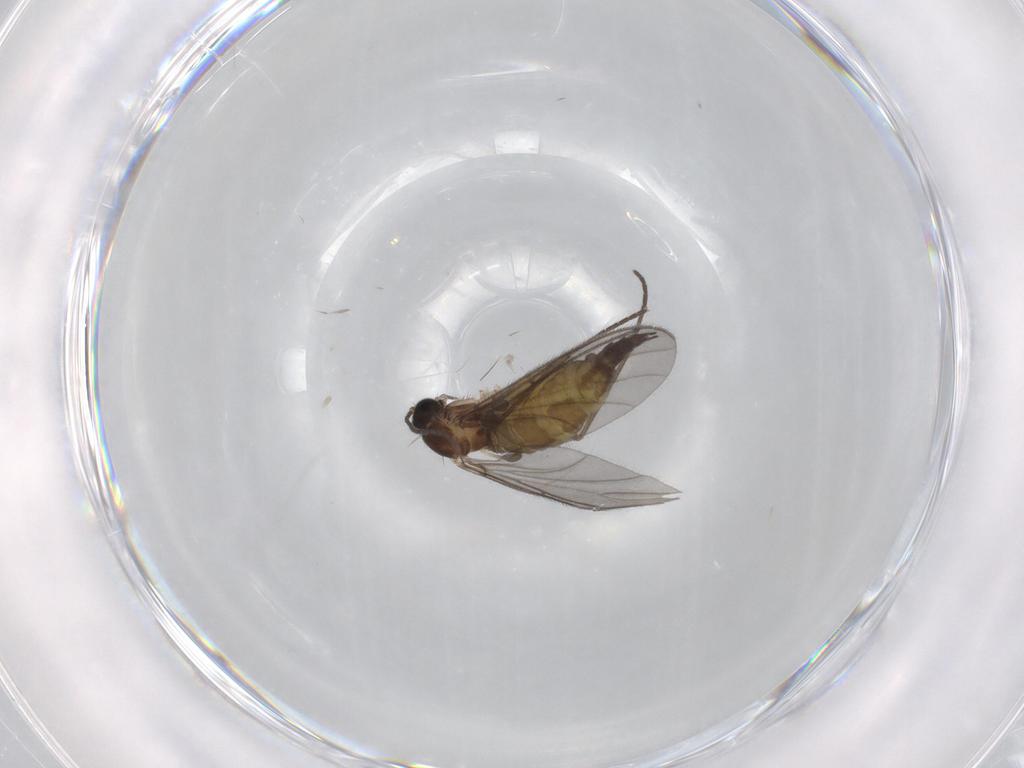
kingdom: Animalia
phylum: Arthropoda
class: Insecta
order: Diptera
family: Sciaridae
